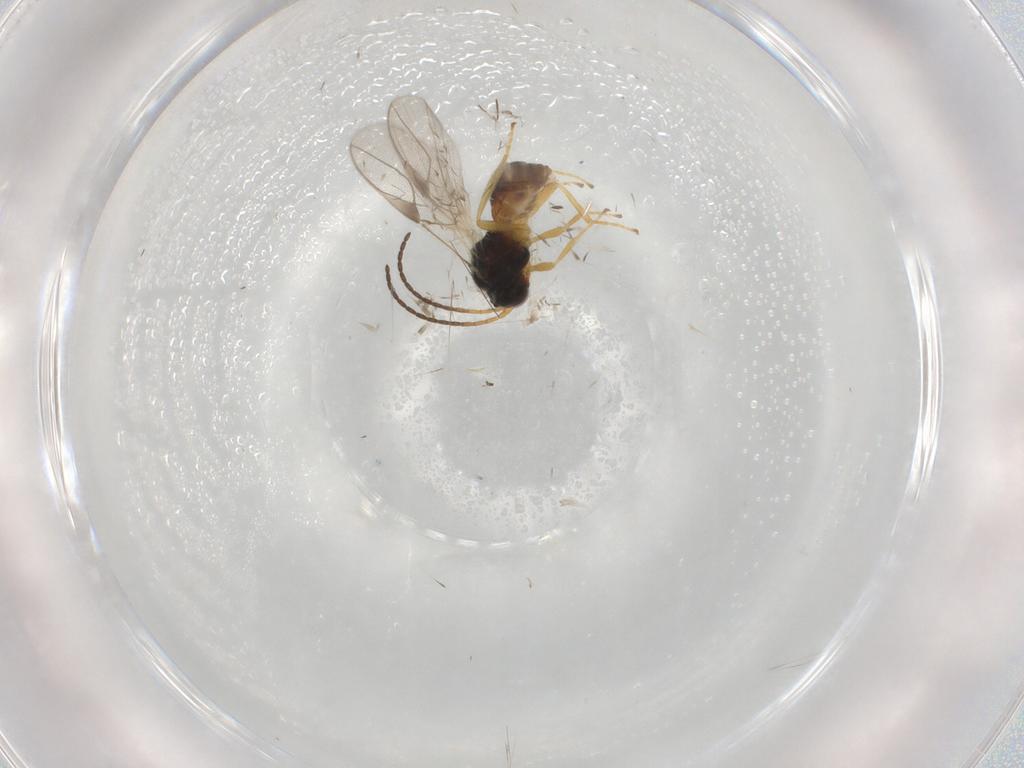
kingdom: Animalia
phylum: Arthropoda
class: Insecta
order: Hymenoptera
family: Braconidae
